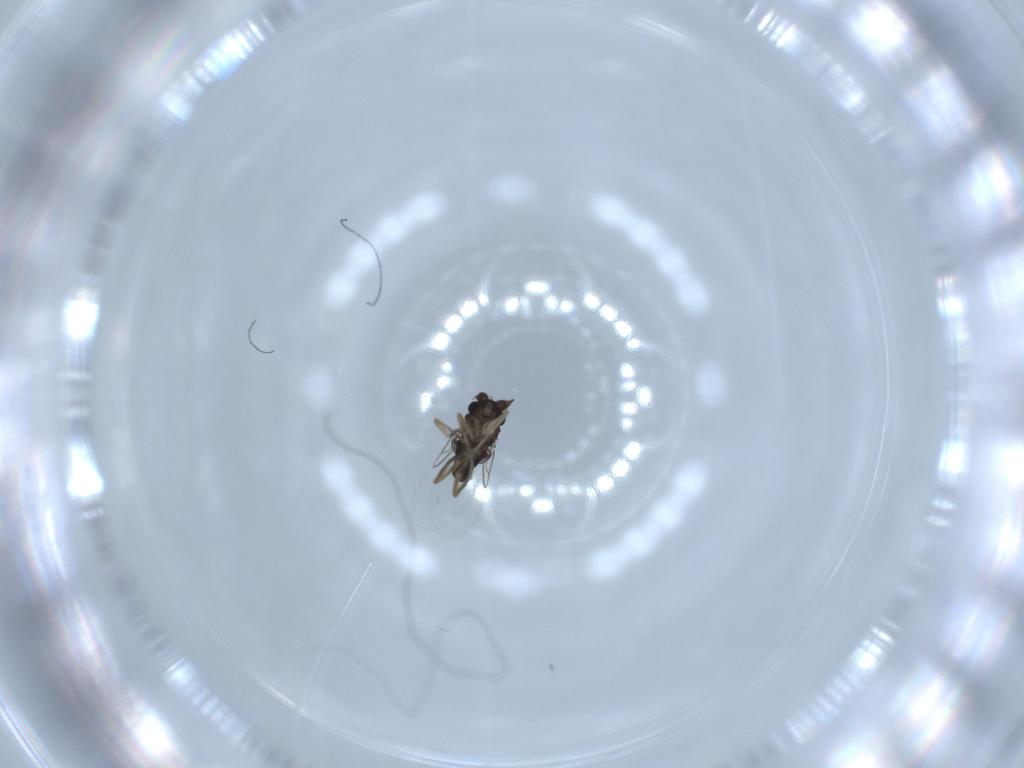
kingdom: Animalia
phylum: Arthropoda
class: Insecta
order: Diptera
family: Phoridae
